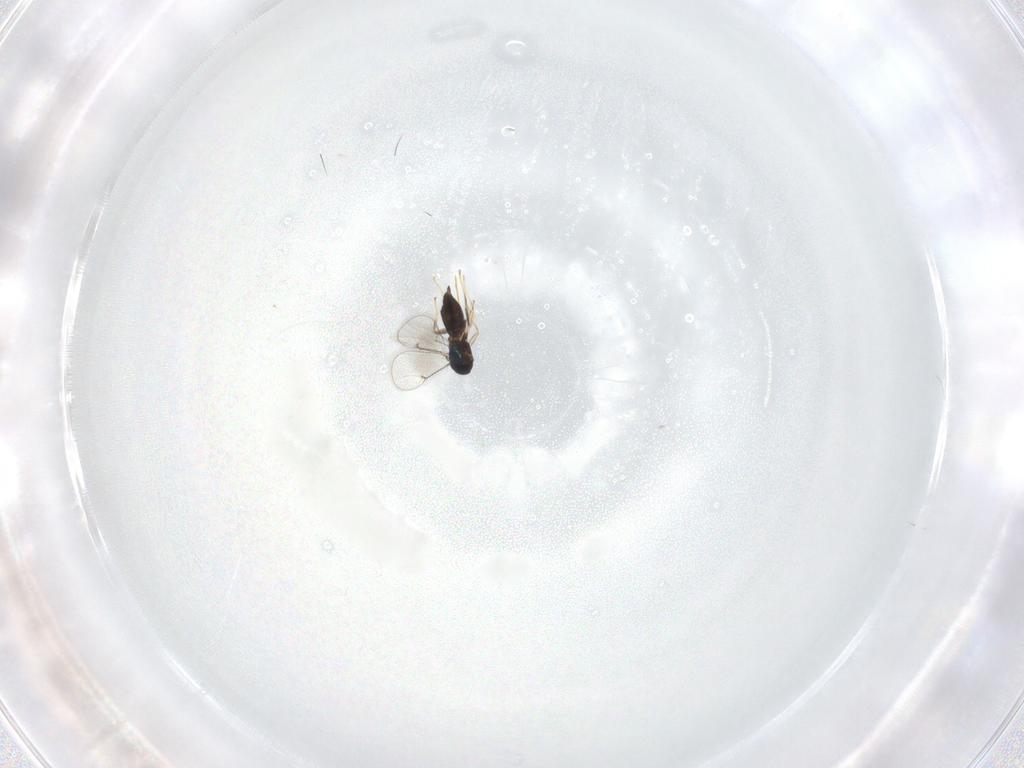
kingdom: Animalia
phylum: Arthropoda
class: Insecta
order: Hymenoptera
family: Eulophidae
